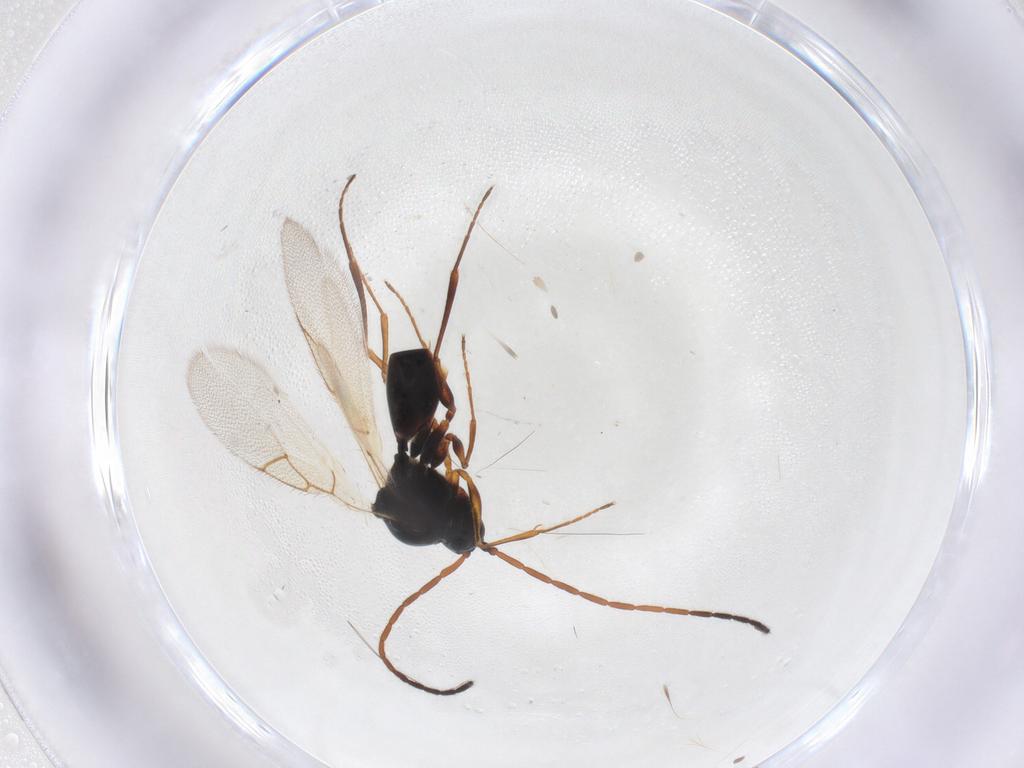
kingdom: Animalia
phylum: Arthropoda
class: Insecta
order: Hymenoptera
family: Figitidae
